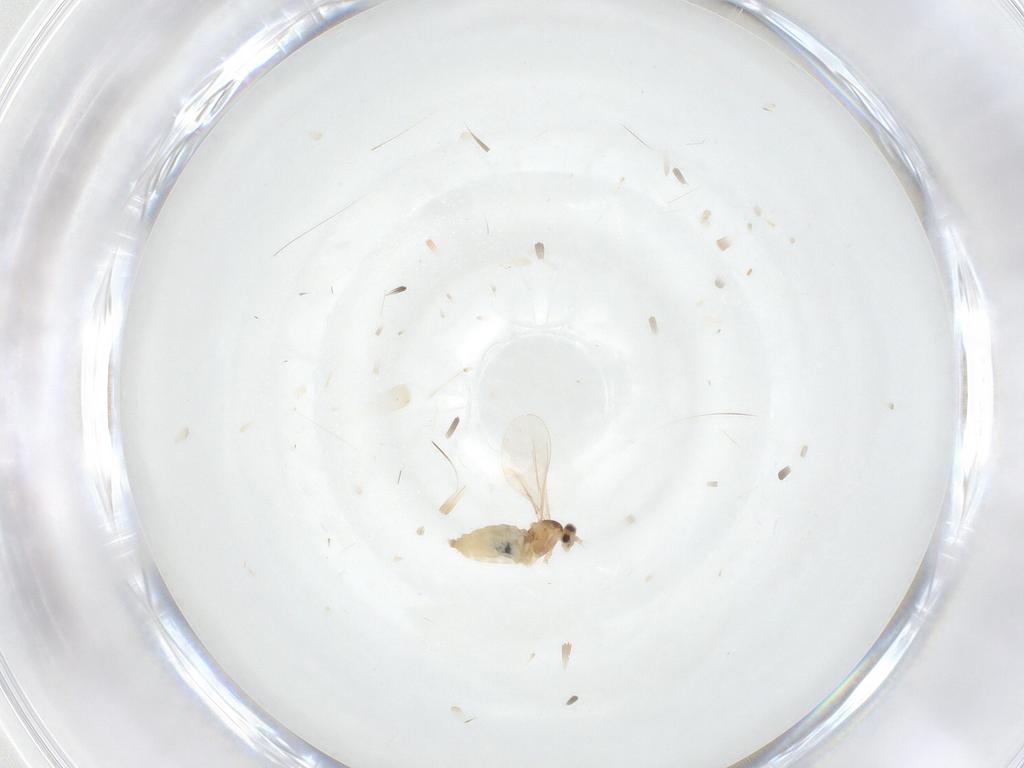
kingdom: Animalia
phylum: Arthropoda
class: Insecta
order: Diptera
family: Cecidomyiidae
